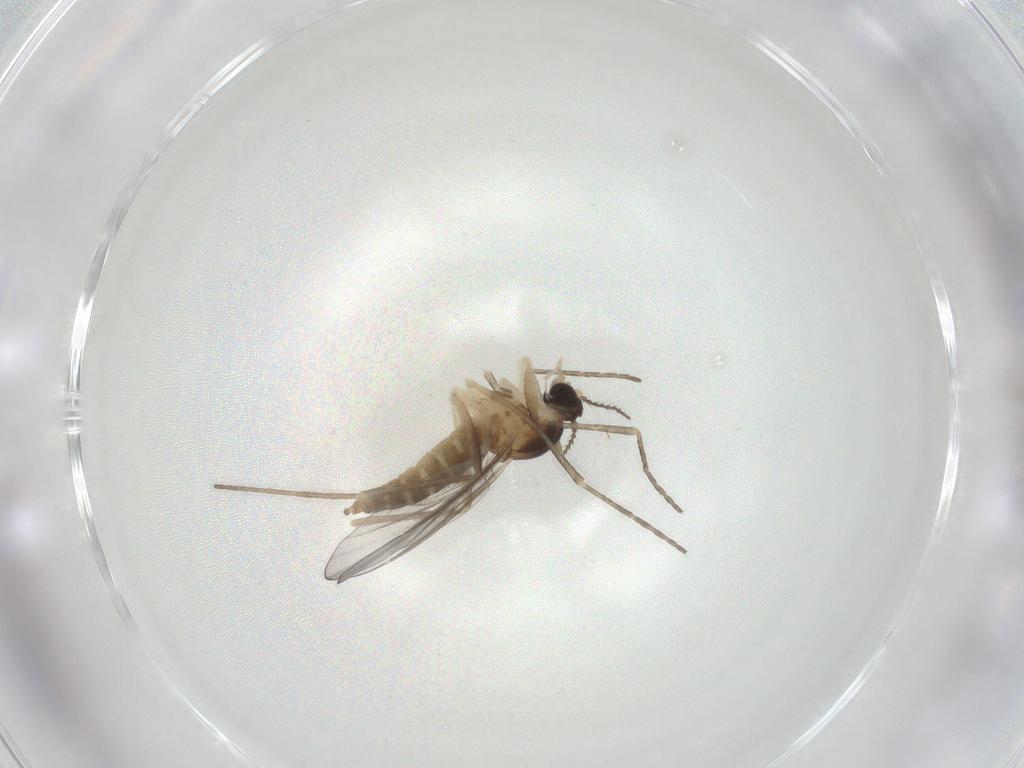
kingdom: Animalia
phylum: Arthropoda
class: Insecta
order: Diptera
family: Cecidomyiidae
